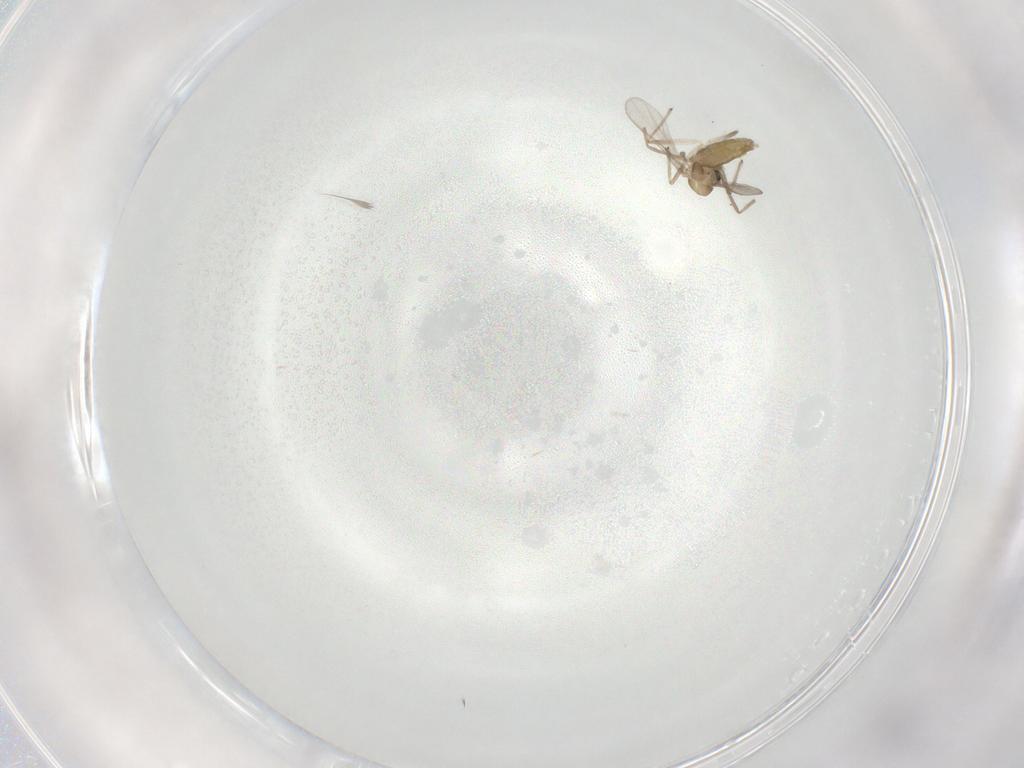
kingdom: Animalia
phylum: Arthropoda
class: Insecta
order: Diptera
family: Chironomidae
